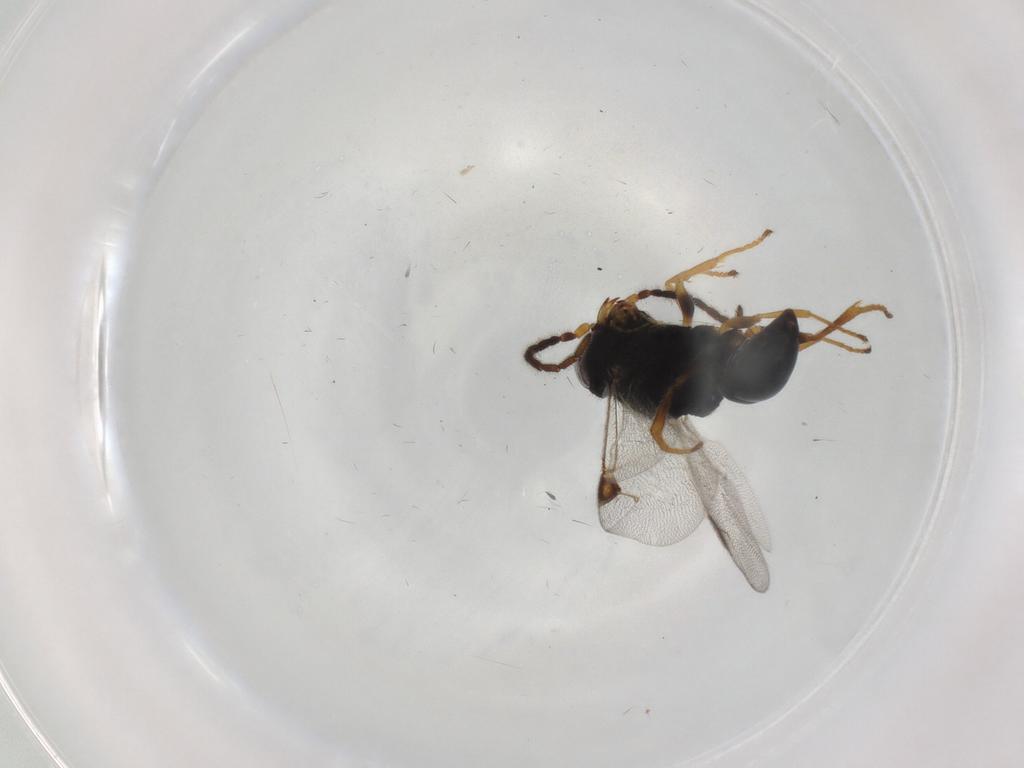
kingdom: Animalia
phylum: Arthropoda
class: Insecta
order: Hymenoptera
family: Dryinidae
